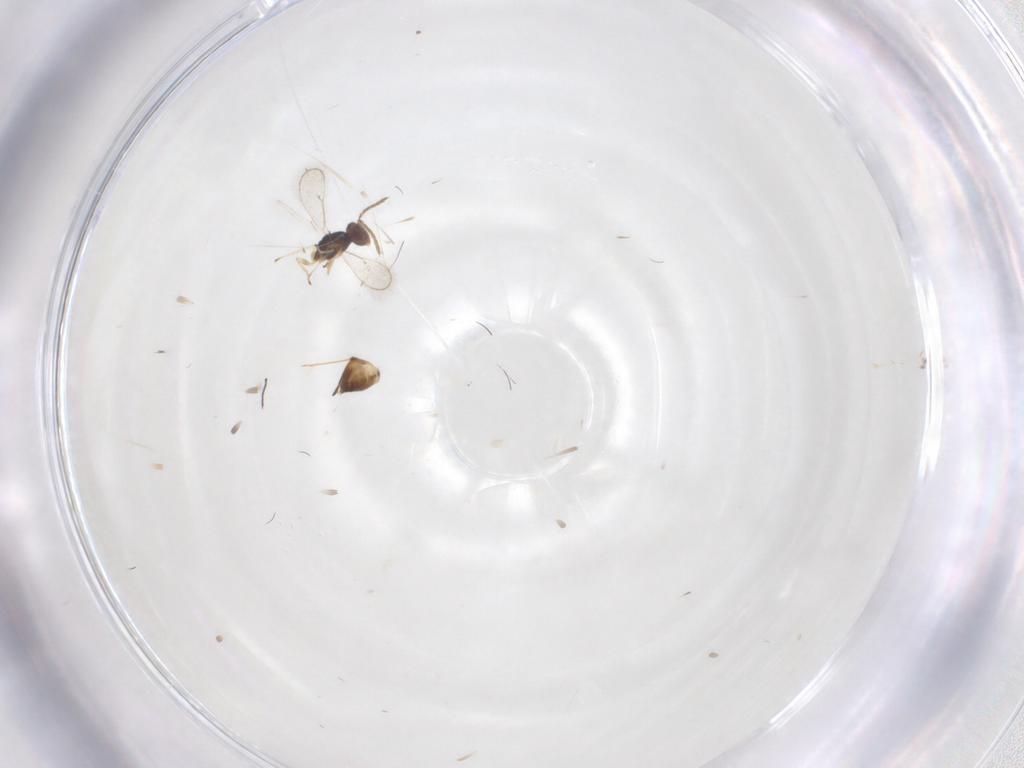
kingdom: Animalia
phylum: Arthropoda
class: Insecta
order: Hymenoptera
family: Eulophidae
